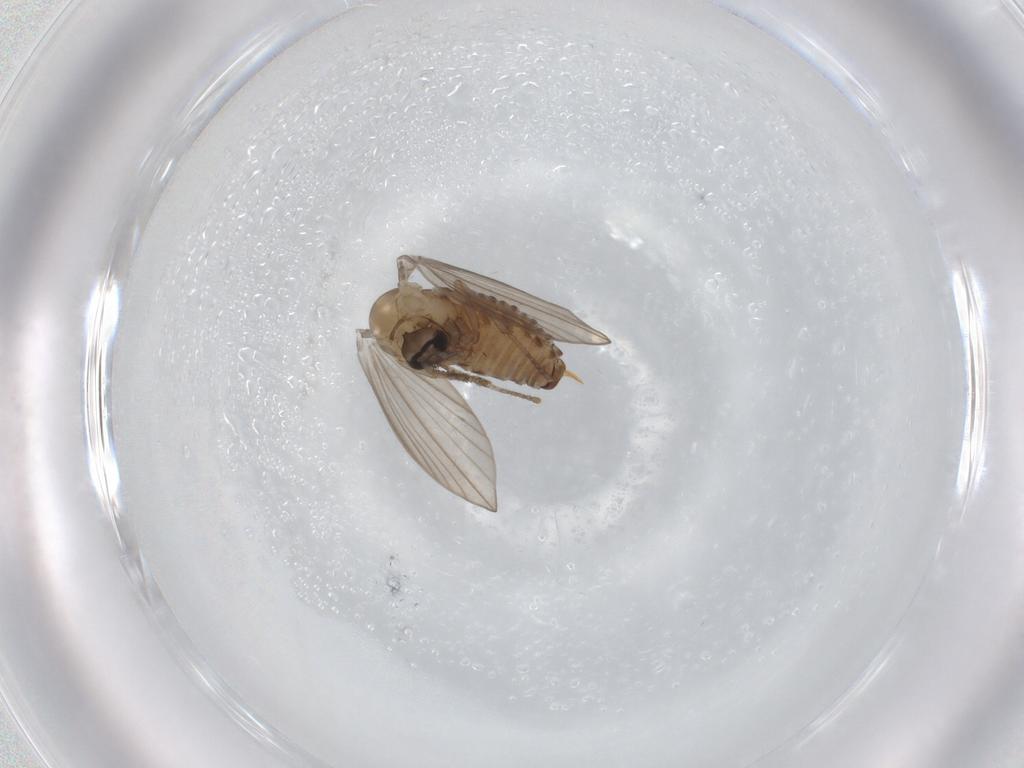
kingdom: Animalia
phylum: Arthropoda
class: Insecta
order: Diptera
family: Psychodidae
